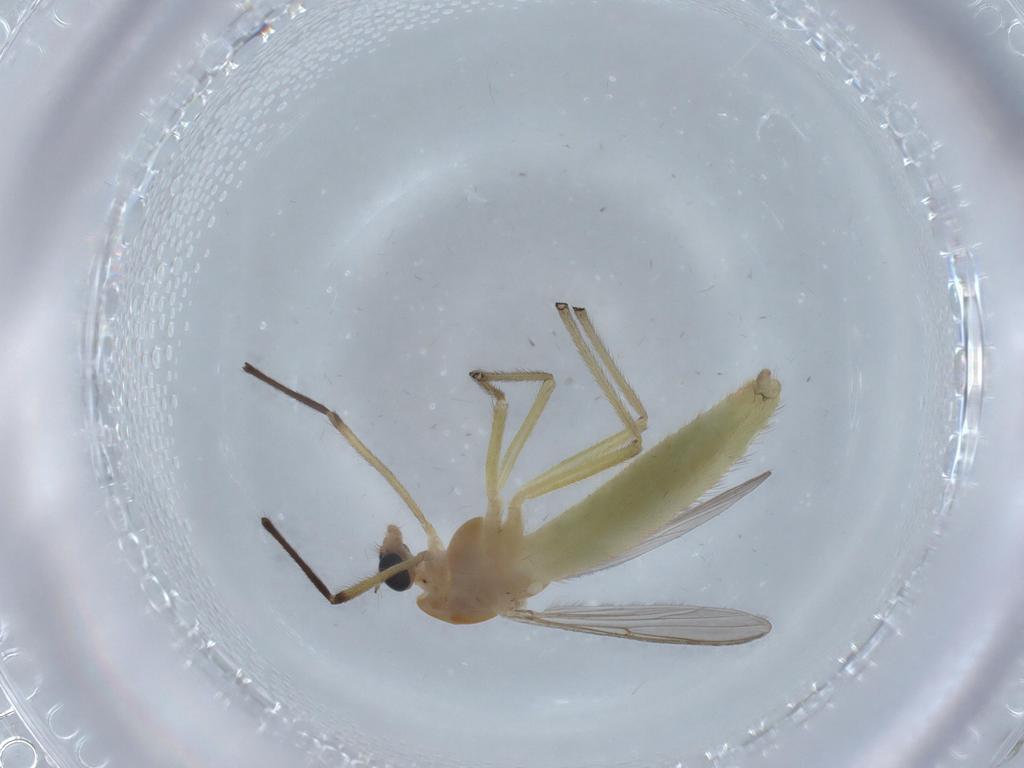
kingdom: Animalia
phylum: Arthropoda
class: Insecta
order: Diptera
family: Chironomidae
